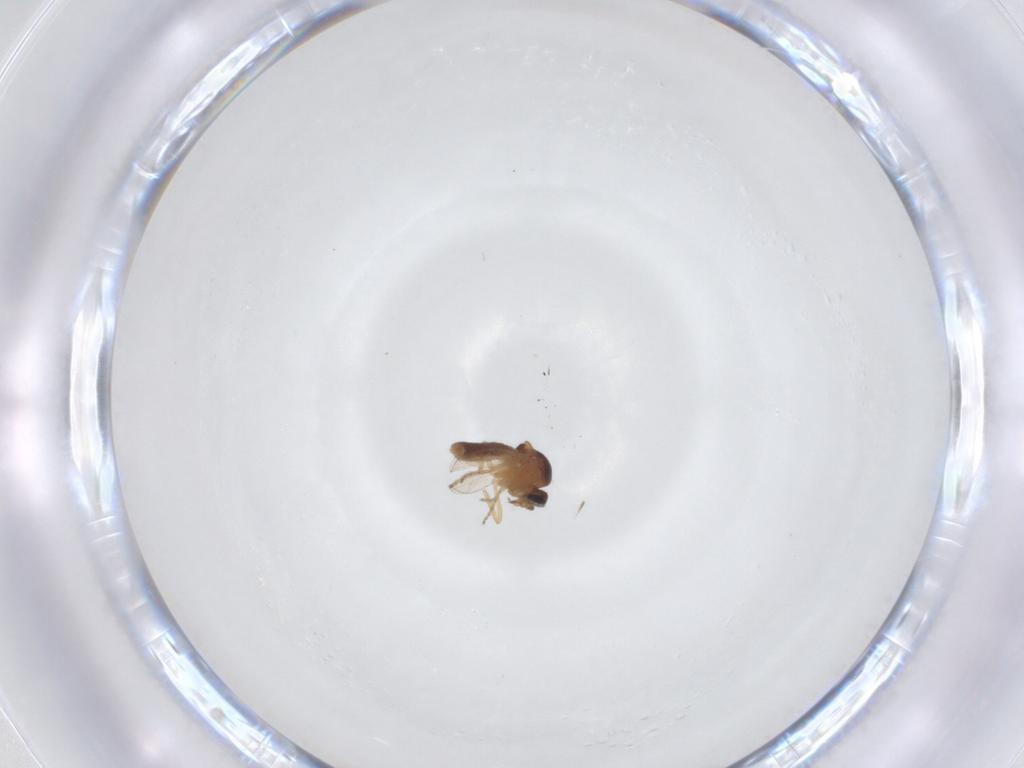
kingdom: Animalia
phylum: Arthropoda
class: Insecta
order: Diptera
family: Ceratopogonidae
